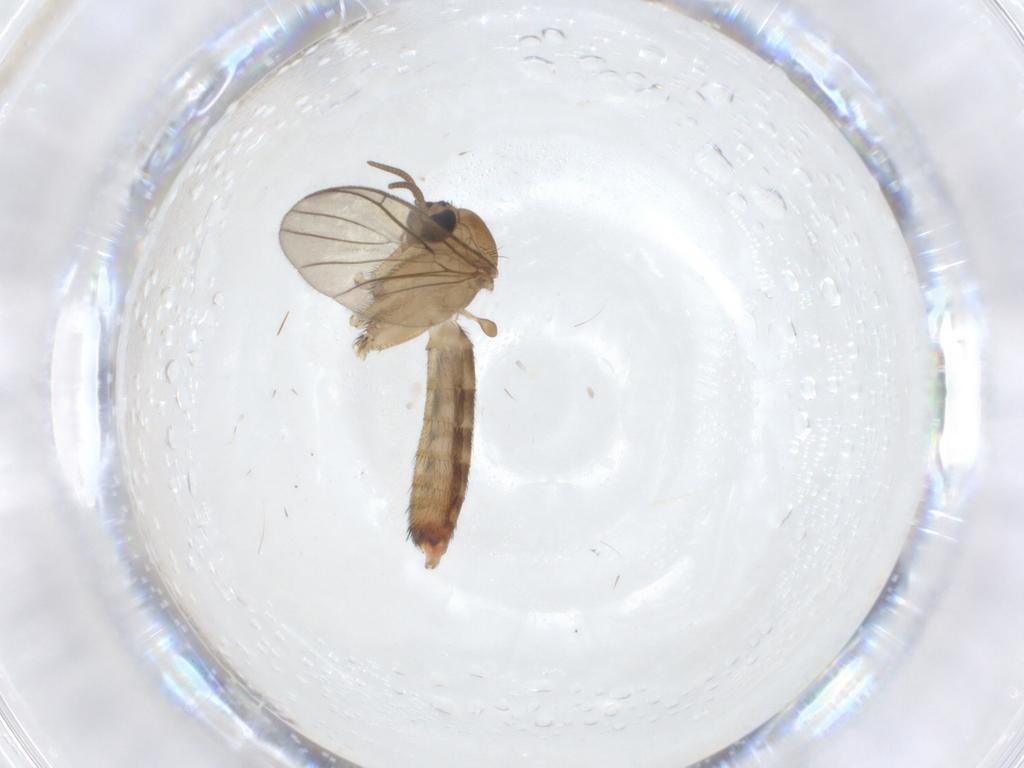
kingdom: Animalia
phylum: Arthropoda
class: Insecta
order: Diptera
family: Keroplatidae
